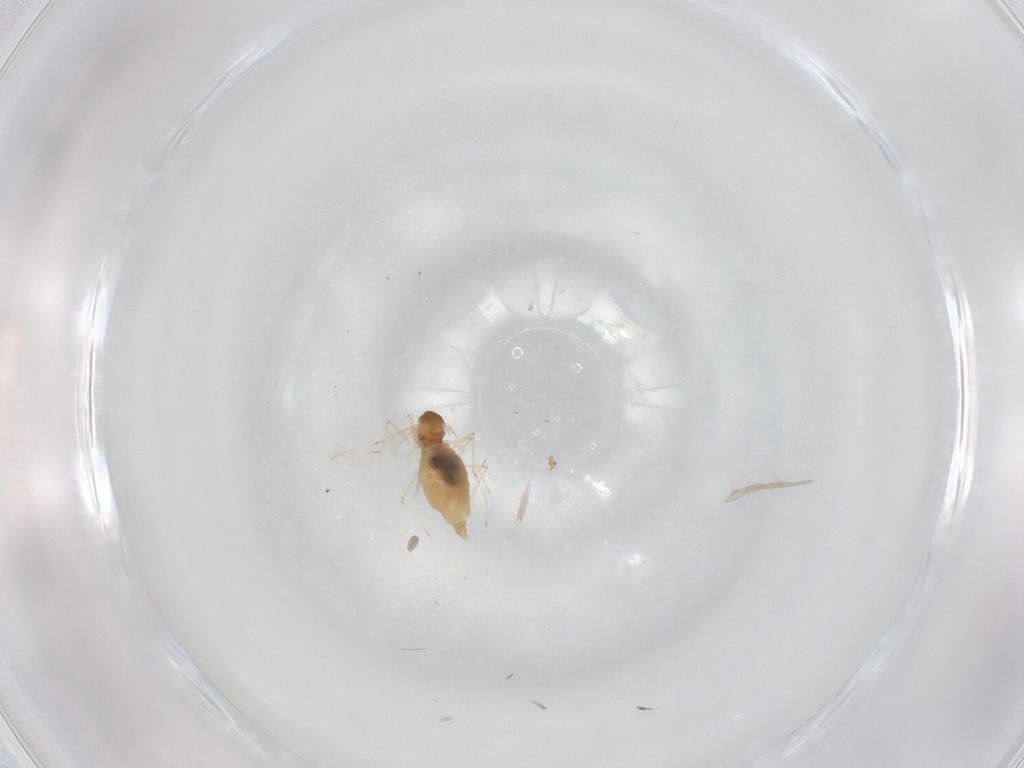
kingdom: Animalia
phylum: Arthropoda
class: Insecta
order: Diptera
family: Cecidomyiidae
